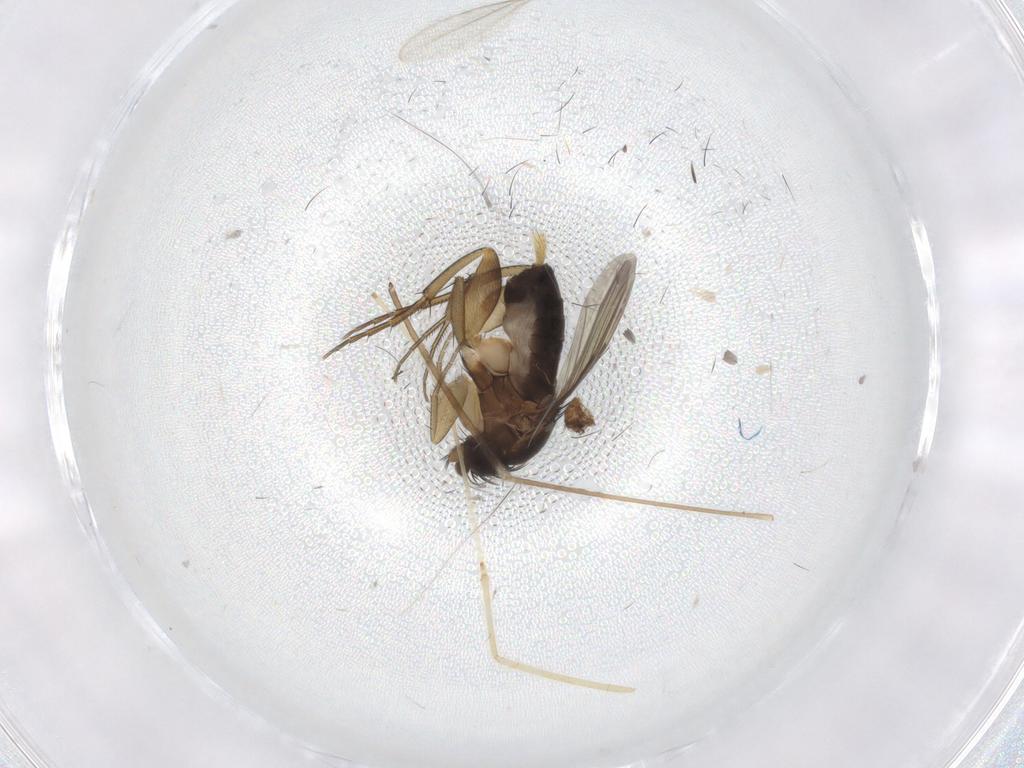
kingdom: Animalia
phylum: Arthropoda
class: Insecta
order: Diptera
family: Phoridae
